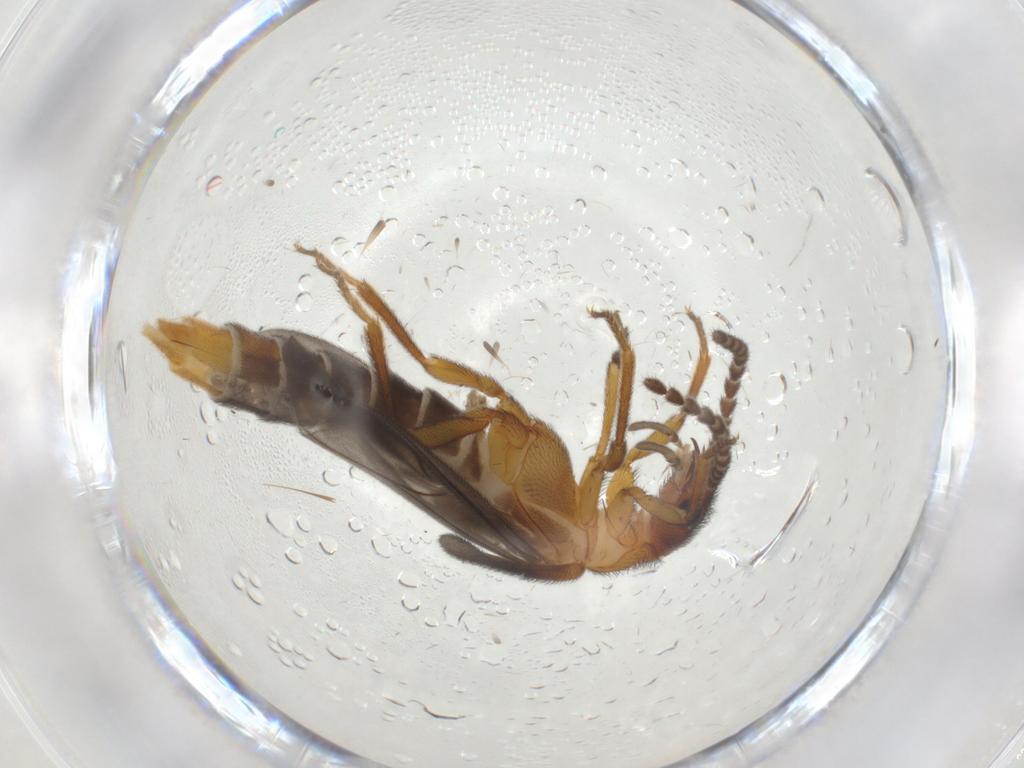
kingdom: Animalia
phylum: Arthropoda
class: Insecta
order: Coleoptera
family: Omethidae
